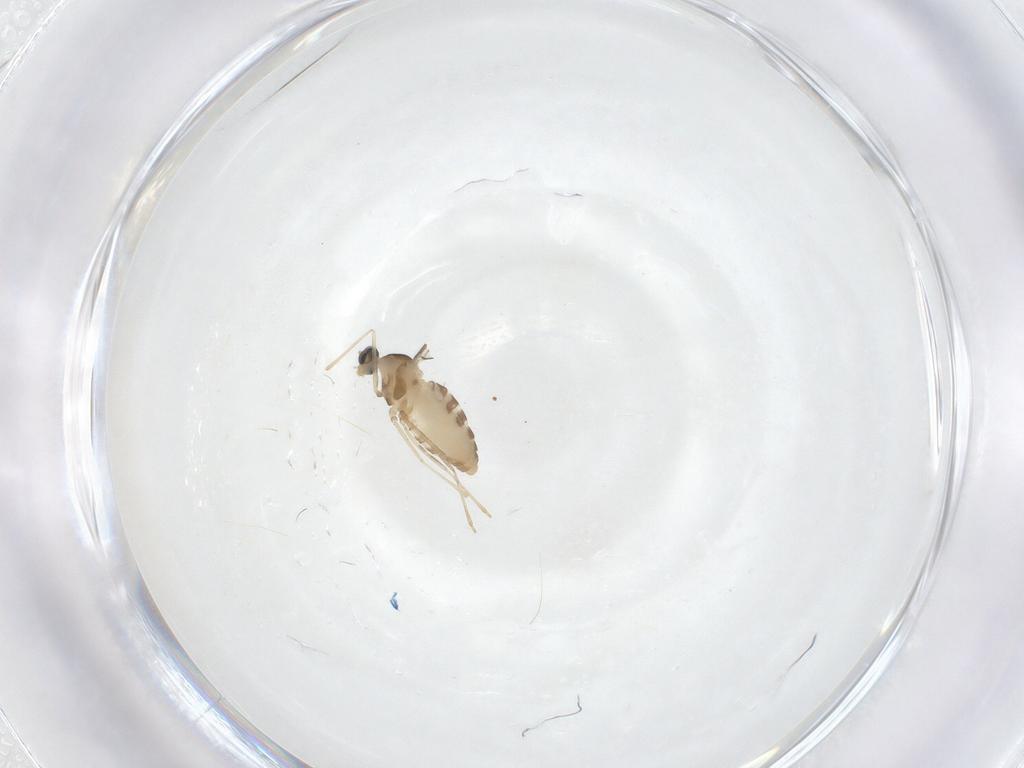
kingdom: Animalia
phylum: Arthropoda
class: Insecta
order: Diptera
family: Cecidomyiidae
